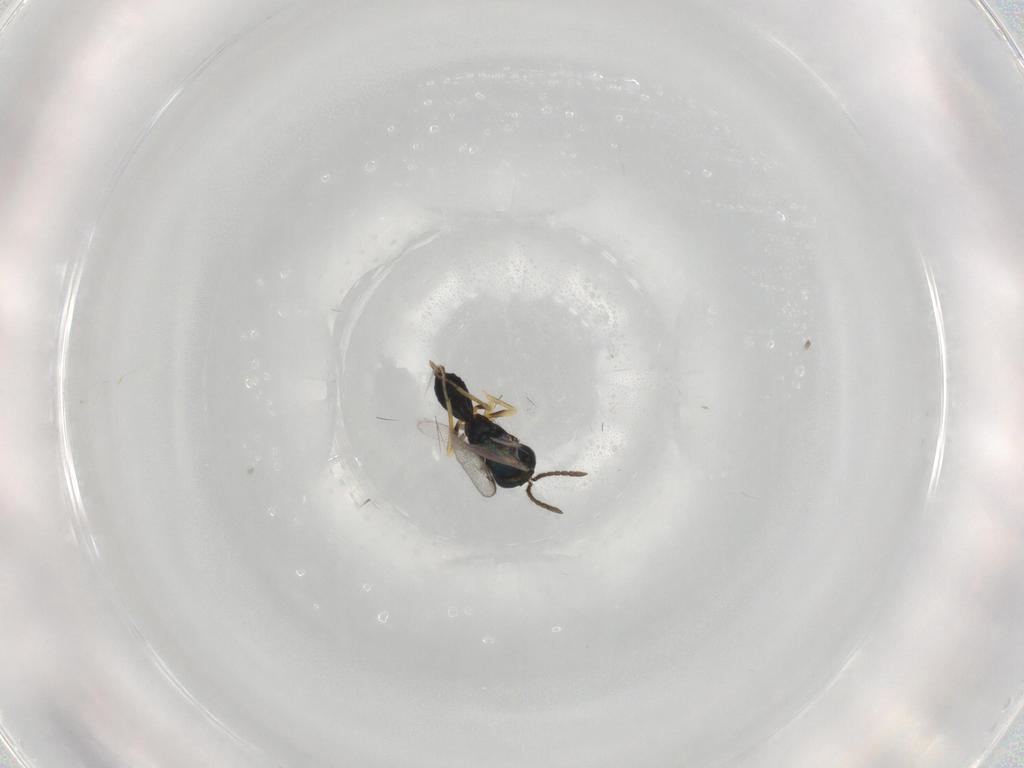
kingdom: Animalia
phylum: Arthropoda
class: Insecta
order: Hymenoptera
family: Pteromalidae
